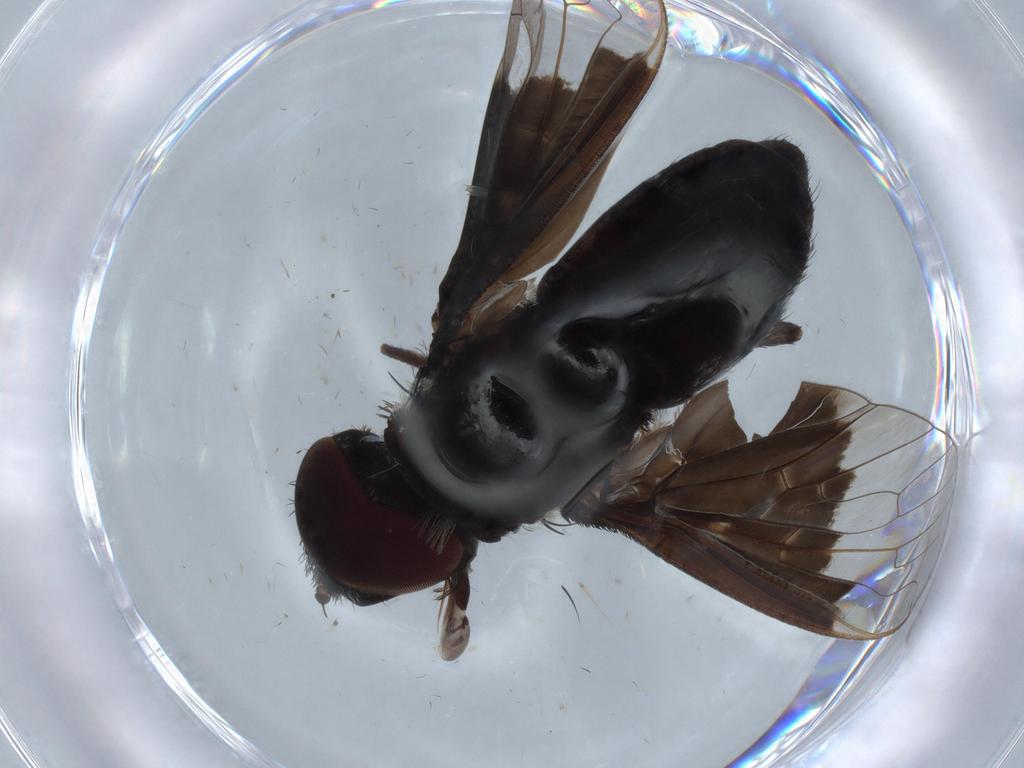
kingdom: Animalia
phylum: Arthropoda
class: Insecta
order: Diptera
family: Bombyliidae
